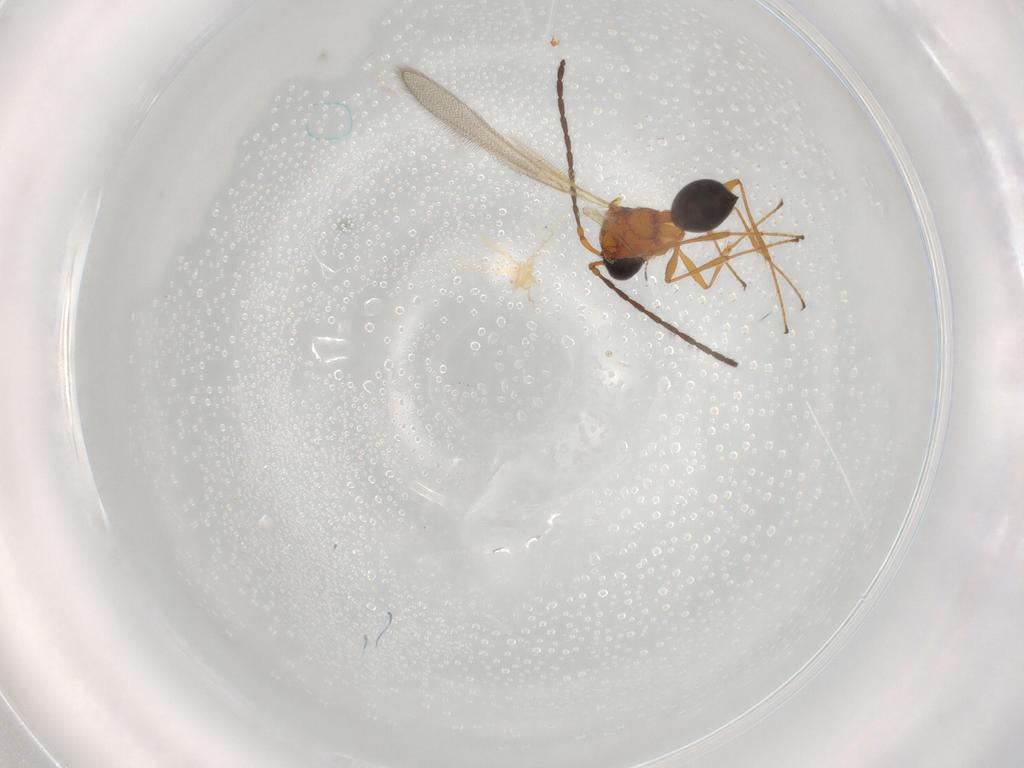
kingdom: Animalia
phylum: Arthropoda
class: Insecta
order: Hymenoptera
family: Diapriidae
